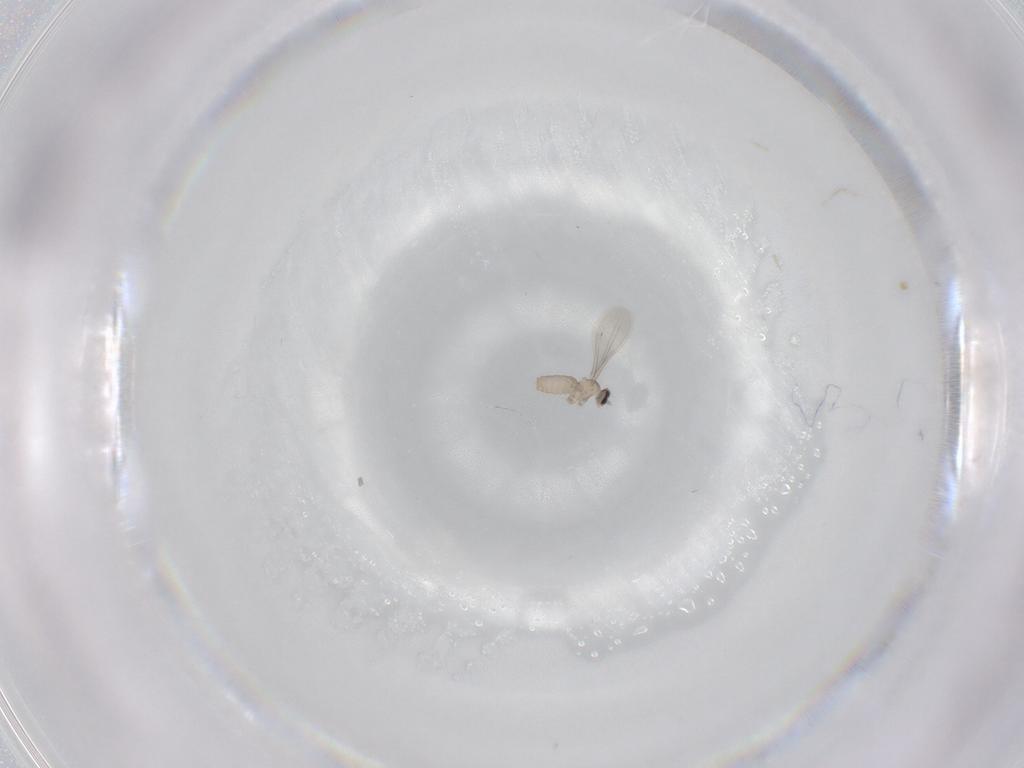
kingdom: Animalia
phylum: Arthropoda
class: Insecta
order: Diptera
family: Cecidomyiidae
